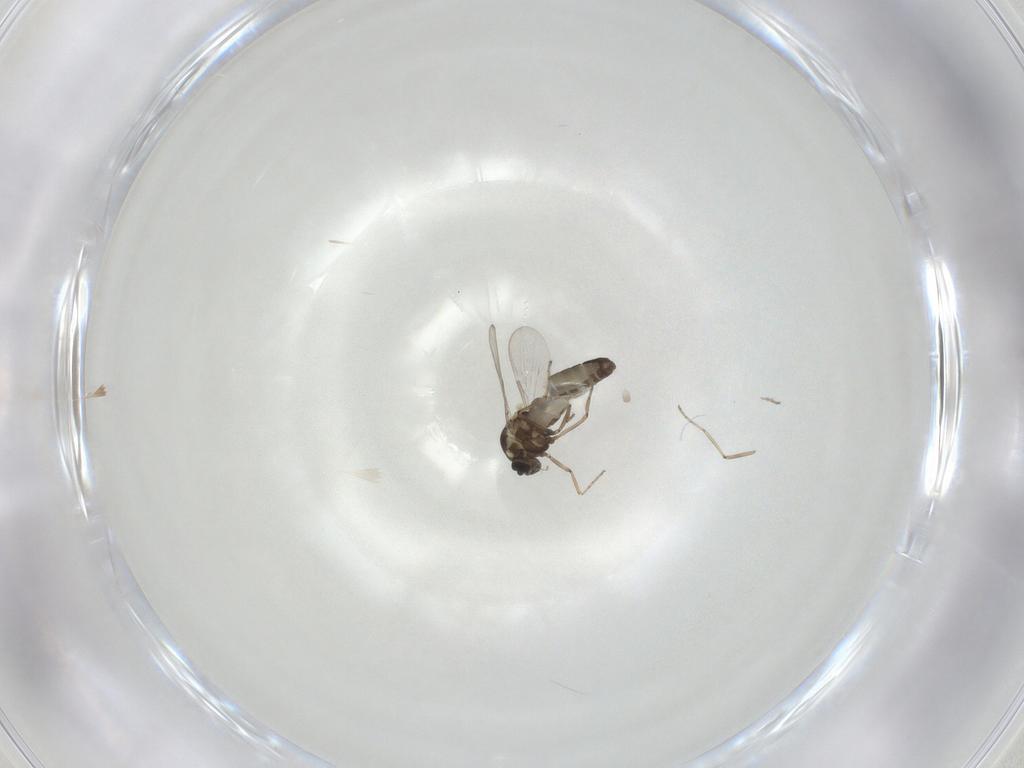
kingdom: Animalia
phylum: Arthropoda
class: Insecta
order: Diptera
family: Ceratopogonidae
